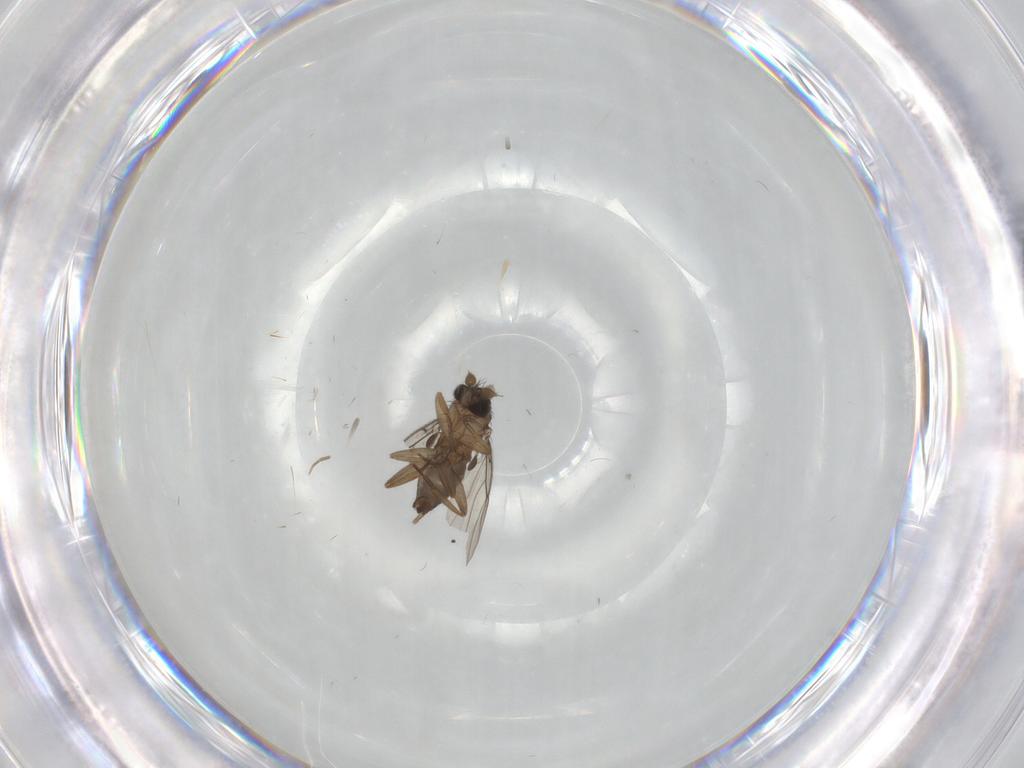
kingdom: Animalia
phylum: Arthropoda
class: Insecta
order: Diptera
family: Phoridae
